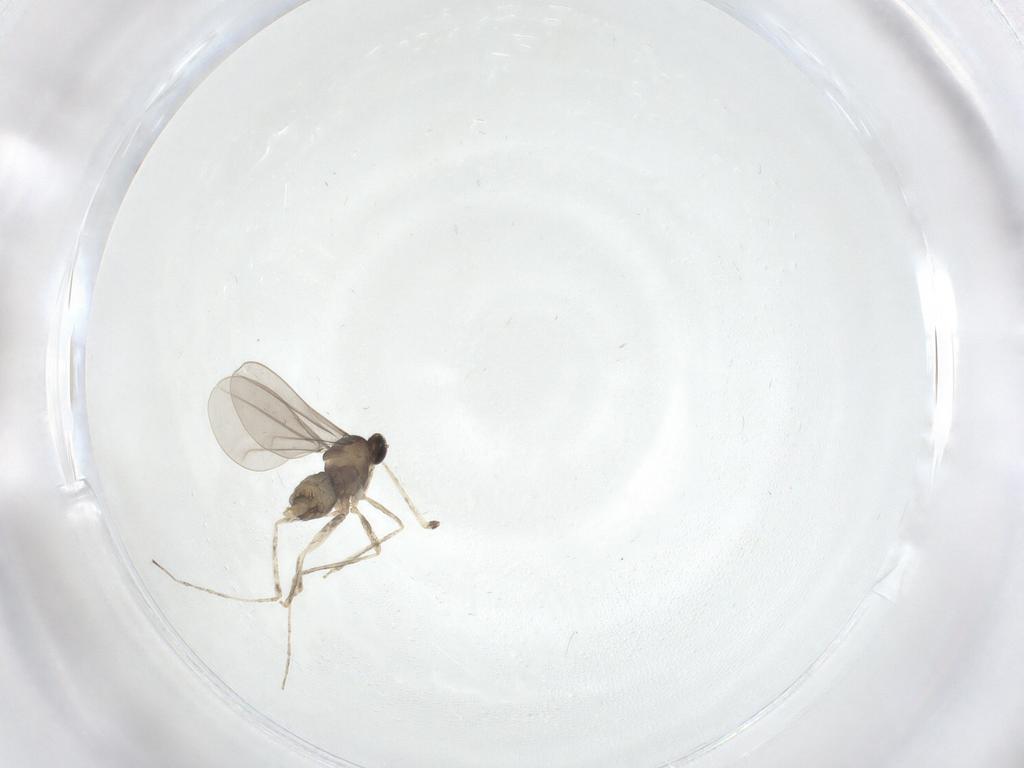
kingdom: Animalia
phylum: Arthropoda
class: Insecta
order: Diptera
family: Cecidomyiidae
